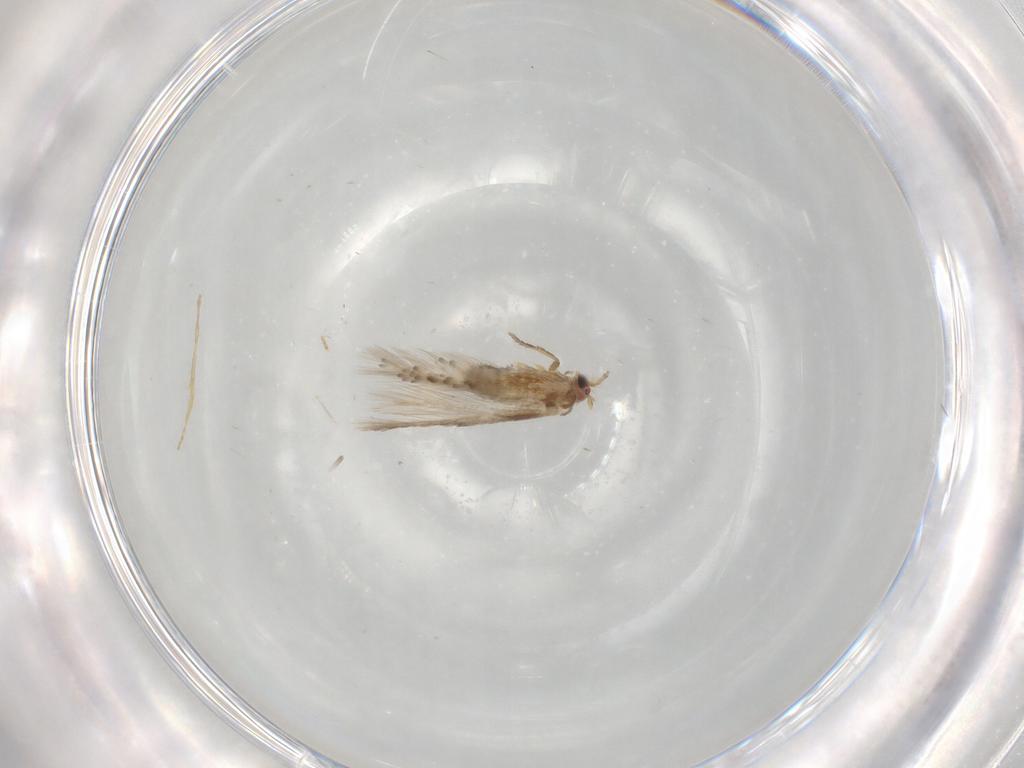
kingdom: Animalia
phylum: Arthropoda
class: Insecta
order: Lepidoptera
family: Nepticulidae
